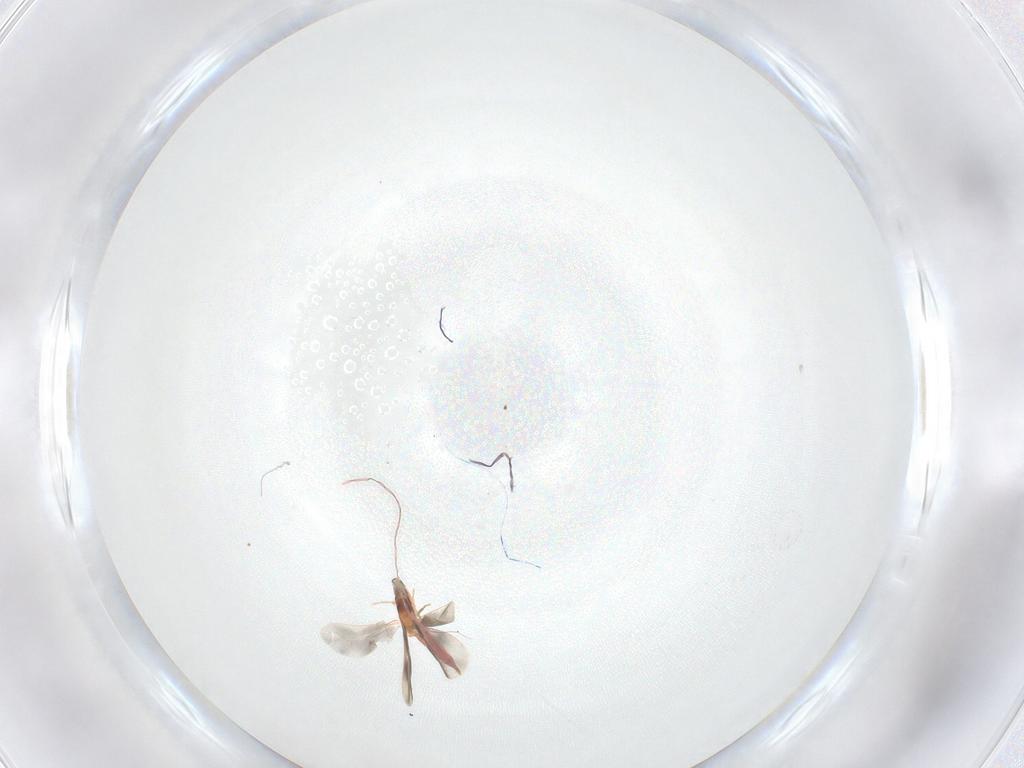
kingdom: Animalia
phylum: Arthropoda
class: Insecta
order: Hemiptera
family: Aleyrodidae
